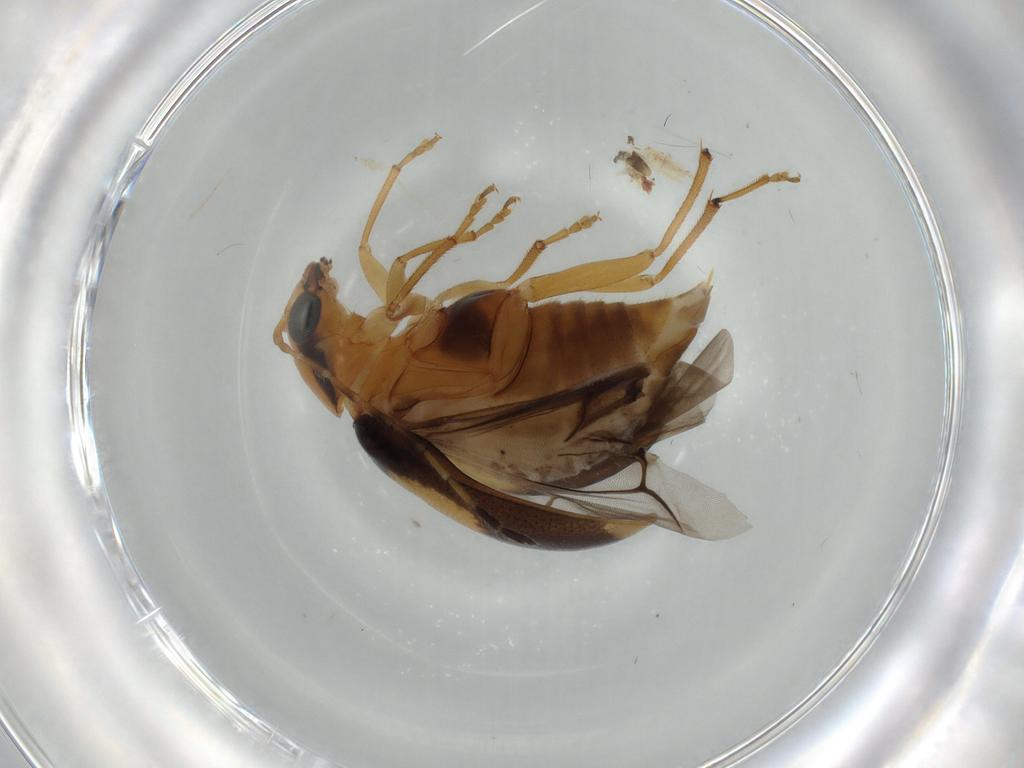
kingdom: Animalia
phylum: Arthropoda
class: Insecta
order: Coleoptera
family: Chrysomelidae
